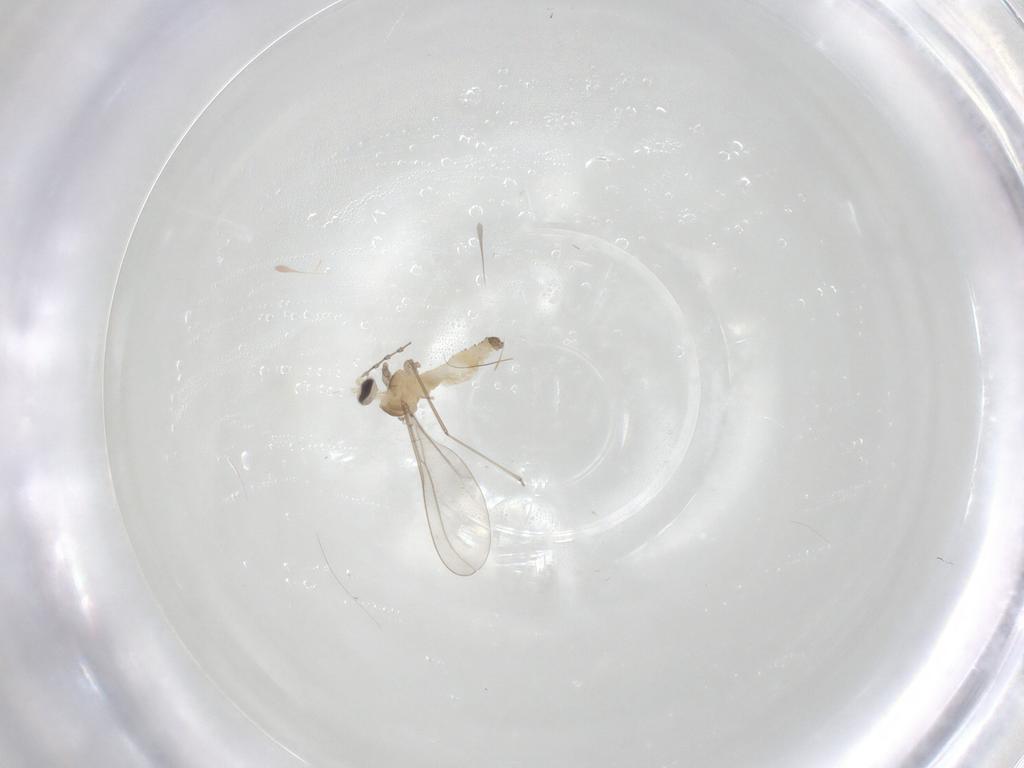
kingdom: Animalia
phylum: Arthropoda
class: Insecta
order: Diptera
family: Cecidomyiidae
